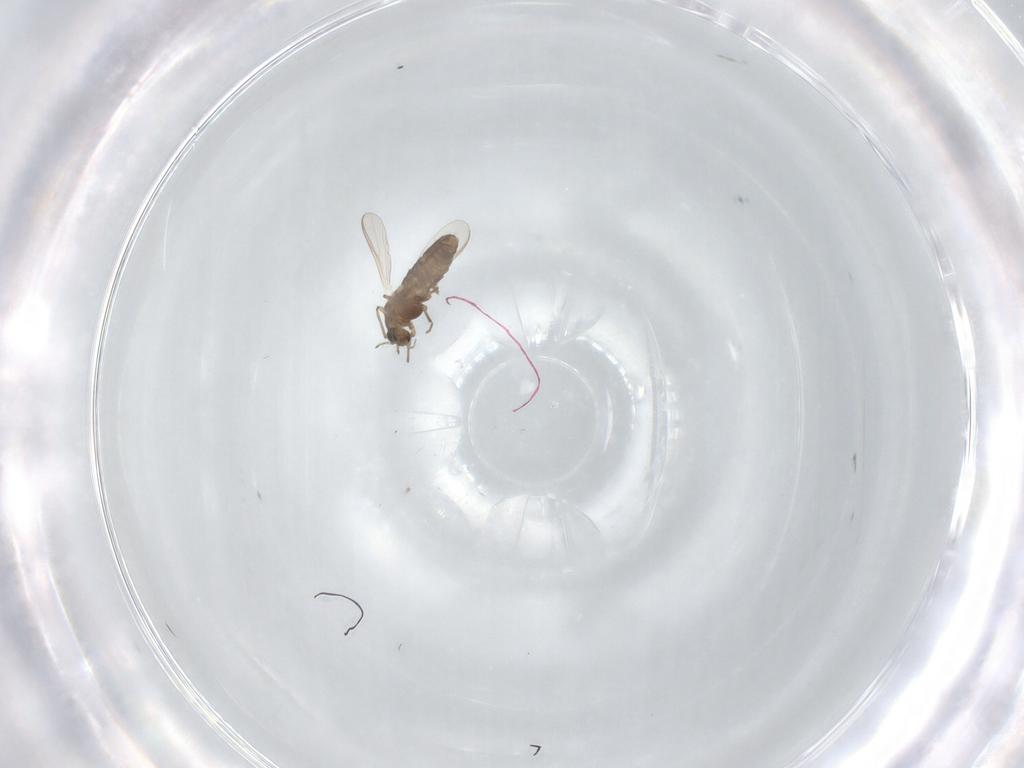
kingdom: Animalia
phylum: Arthropoda
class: Insecta
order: Diptera
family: Chironomidae
